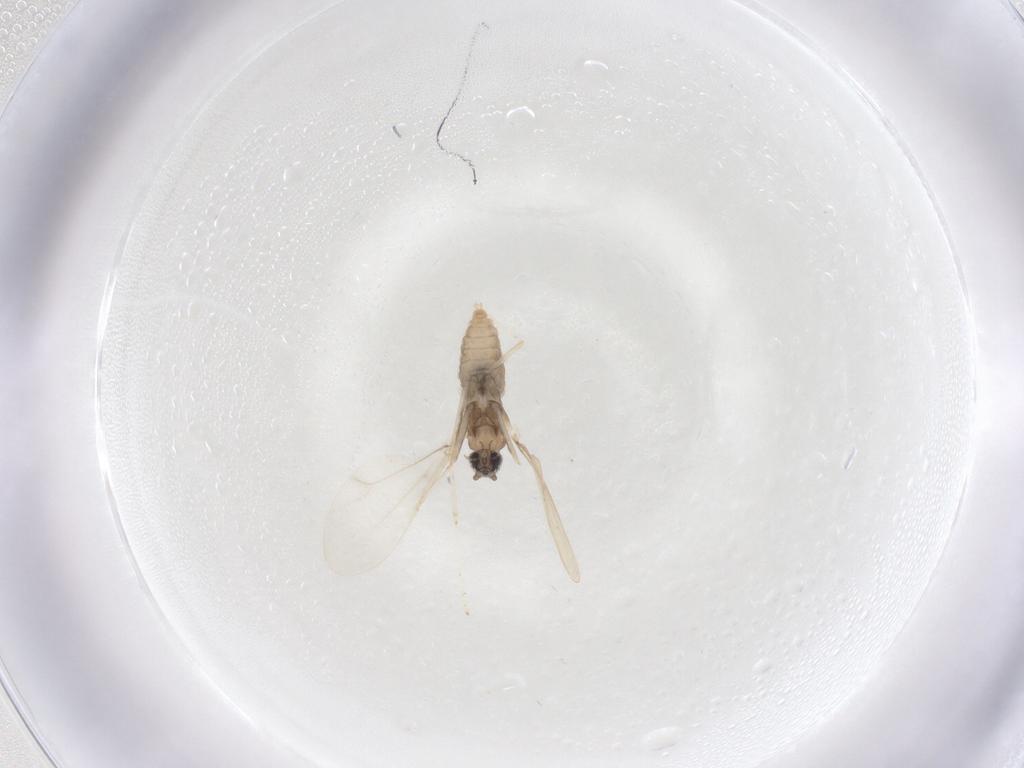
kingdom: Animalia
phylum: Arthropoda
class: Insecta
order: Diptera
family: Cecidomyiidae
